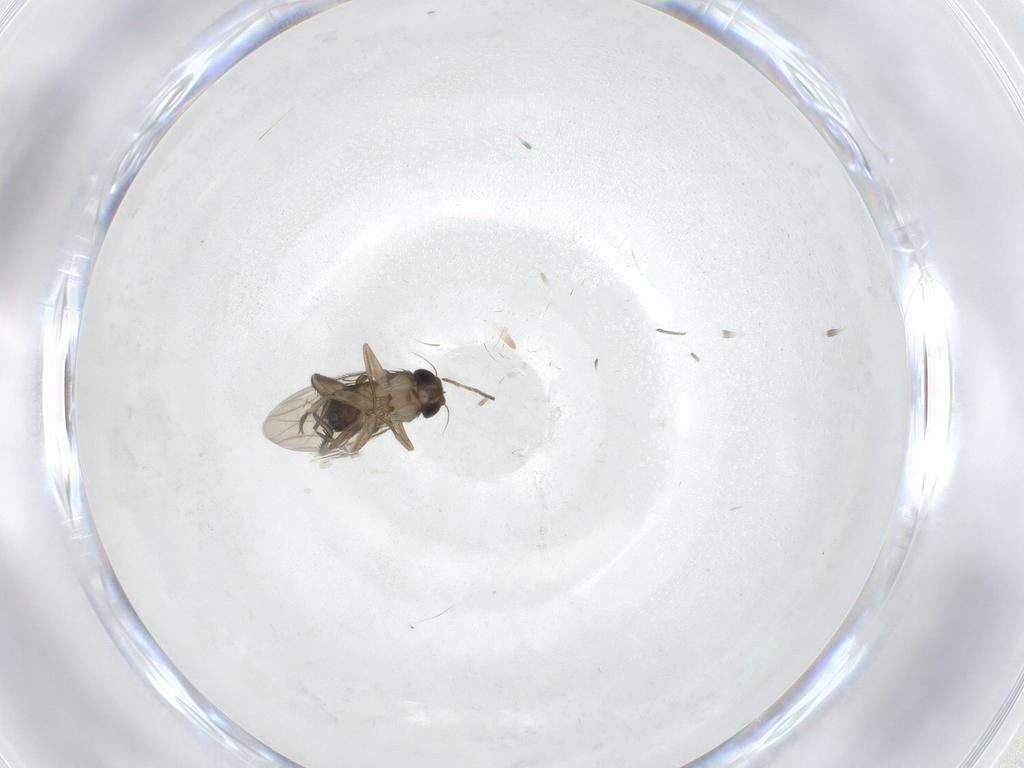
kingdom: Animalia
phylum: Arthropoda
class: Insecta
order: Diptera
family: Phoridae
